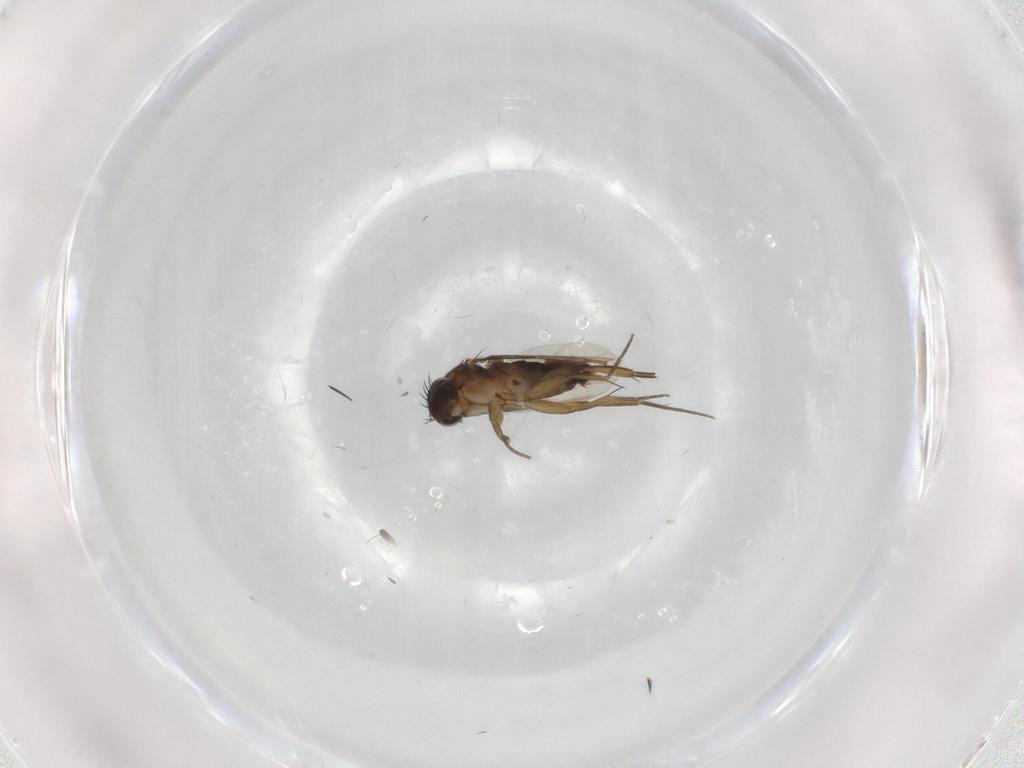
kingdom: Animalia
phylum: Arthropoda
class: Insecta
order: Diptera
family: Phoridae
